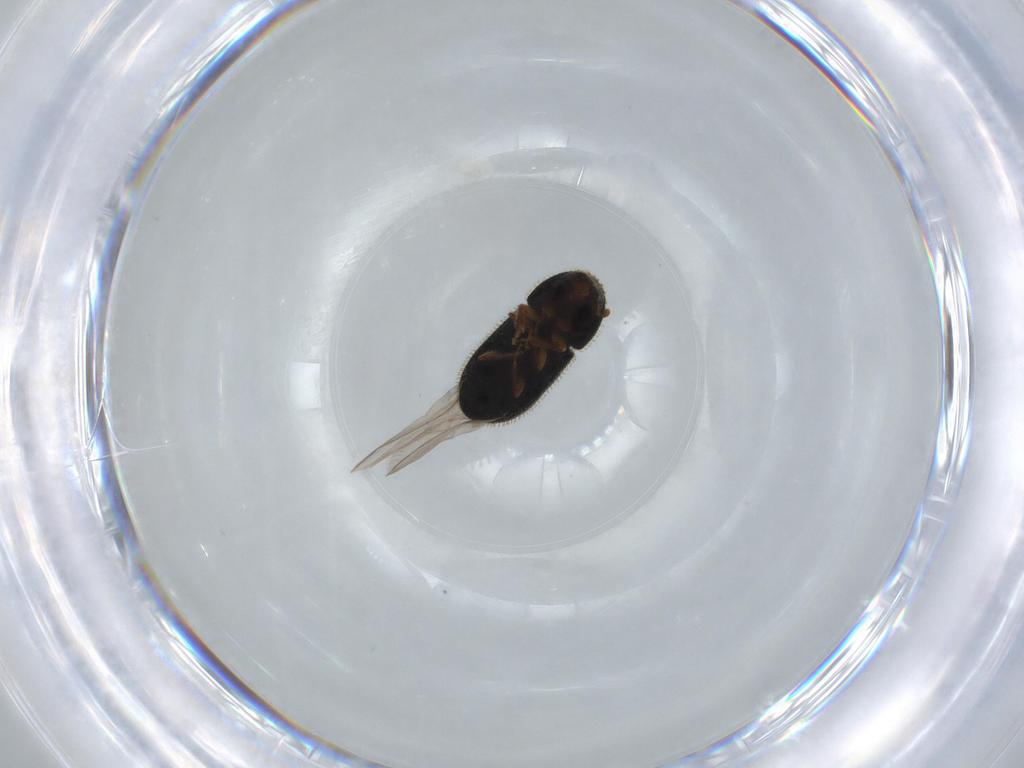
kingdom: Animalia
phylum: Arthropoda
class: Insecta
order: Coleoptera
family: Curculionidae
